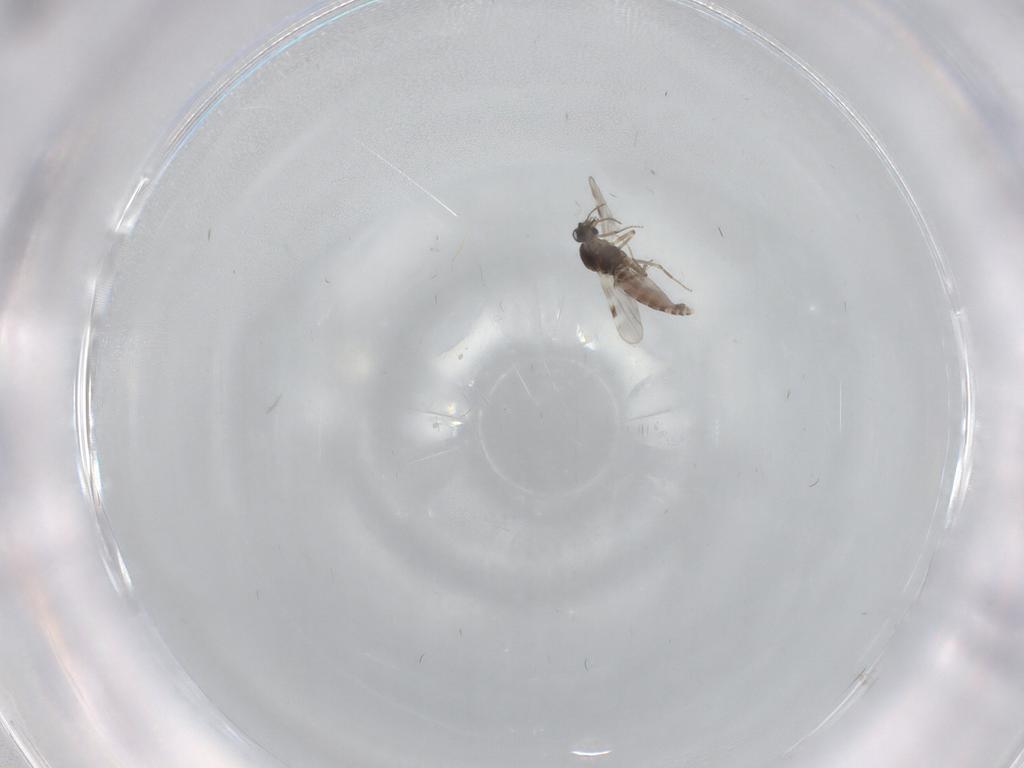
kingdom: Animalia
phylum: Arthropoda
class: Insecta
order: Diptera
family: Cecidomyiidae
